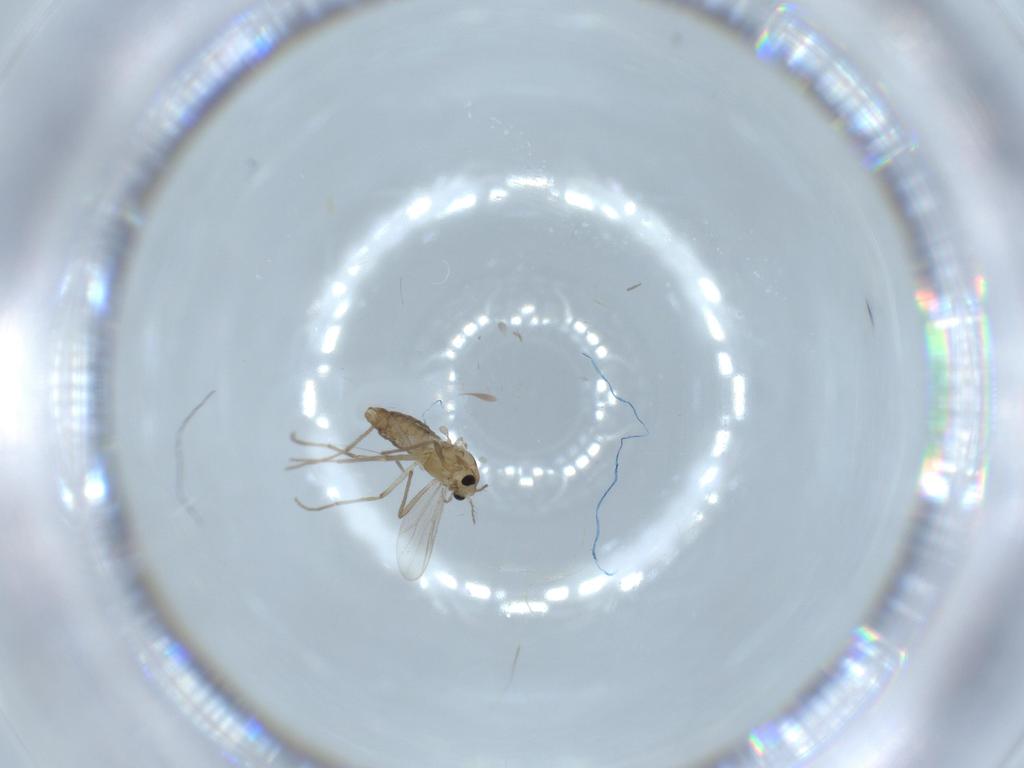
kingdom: Animalia
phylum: Arthropoda
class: Insecta
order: Diptera
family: Chironomidae
